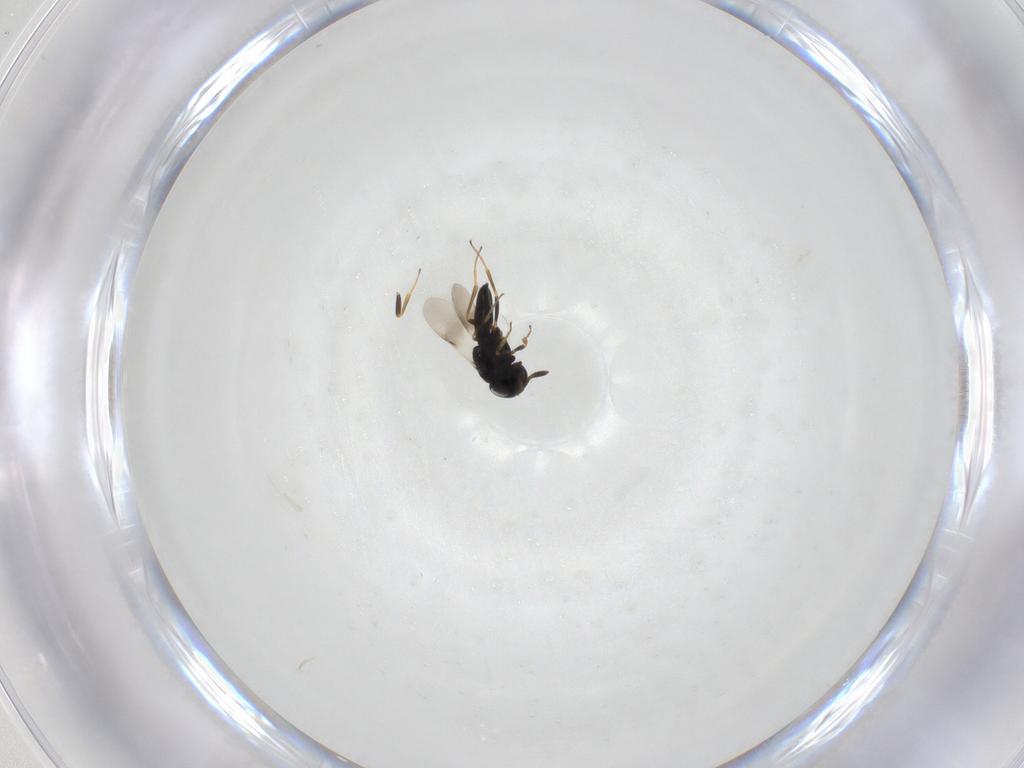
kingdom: Animalia
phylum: Arthropoda
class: Insecta
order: Hymenoptera
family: Scelionidae
